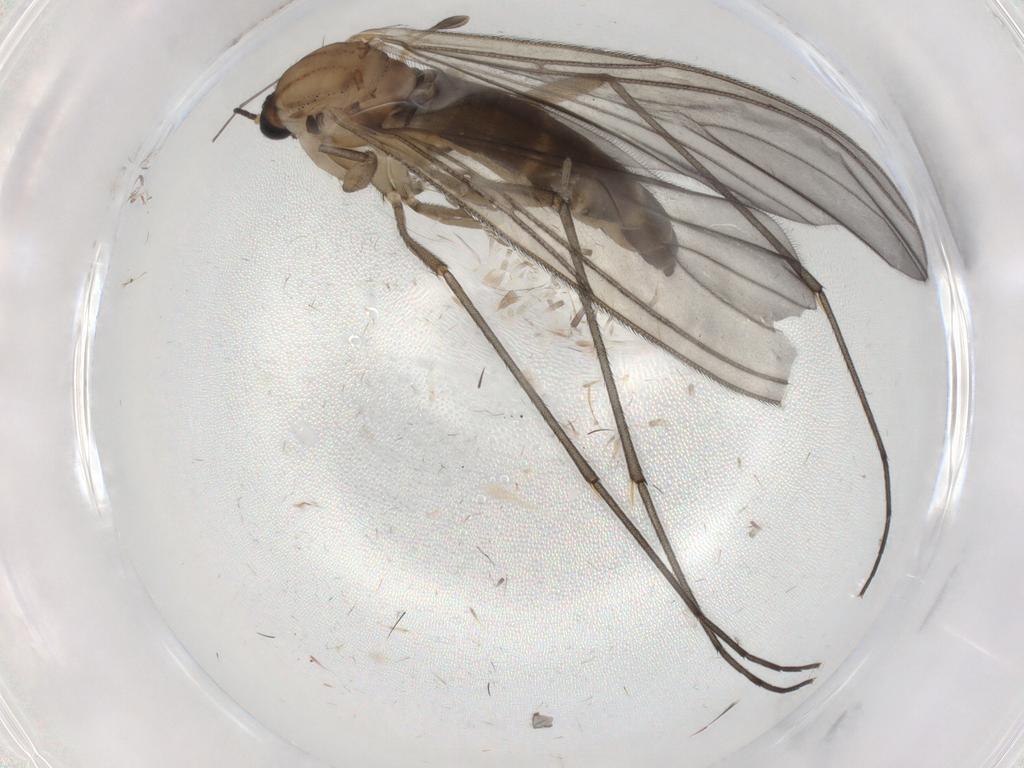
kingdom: Animalia
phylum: Arthropoda
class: Insecta
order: Diptera
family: Sciaridae
